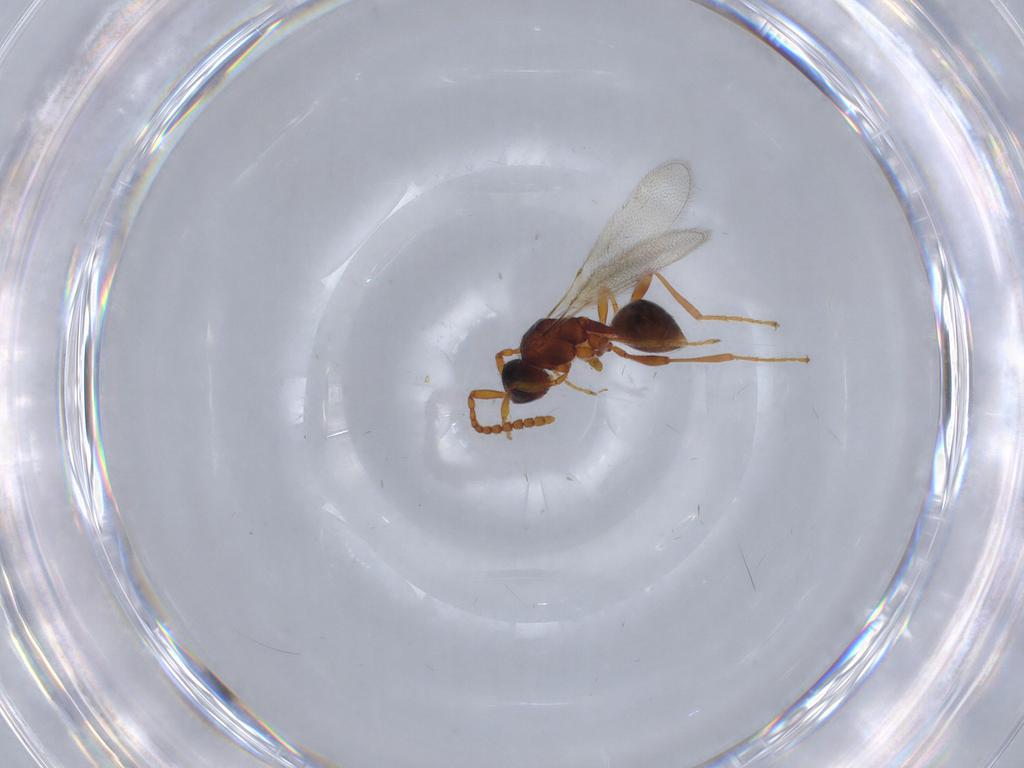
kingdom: Animalia
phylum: Arthropoda
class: Insecta
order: Hymenoptera
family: Diapriidae
